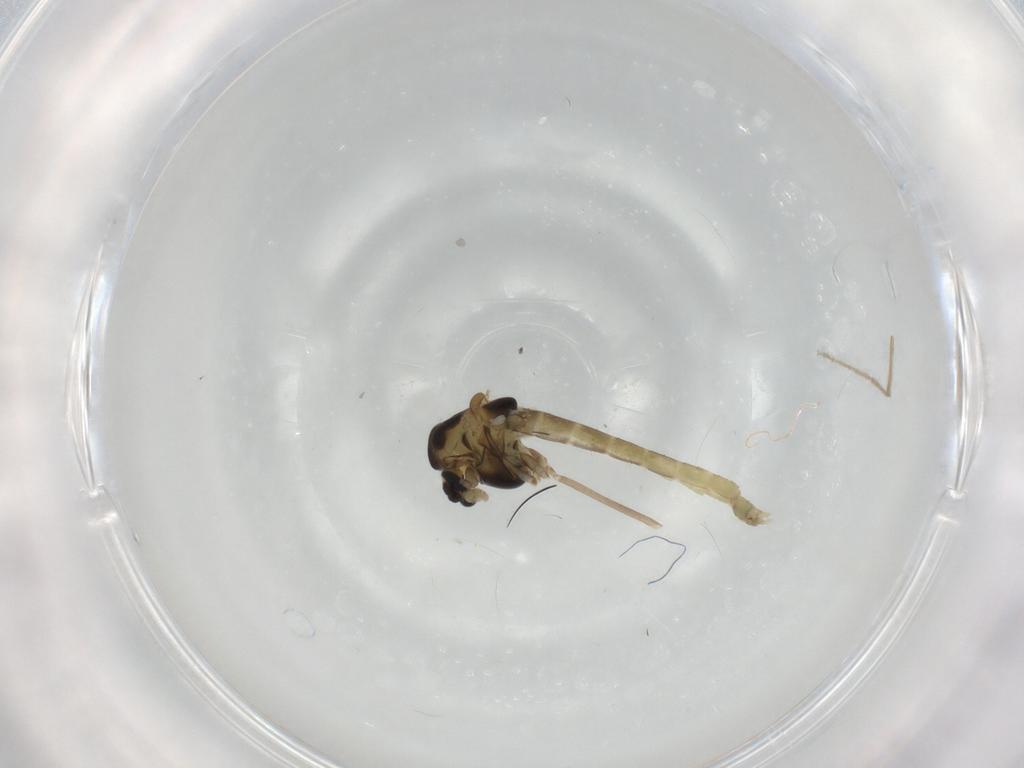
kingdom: Animalia
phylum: Arthropoda
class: Insecta
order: Diptera
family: Chironomidae
